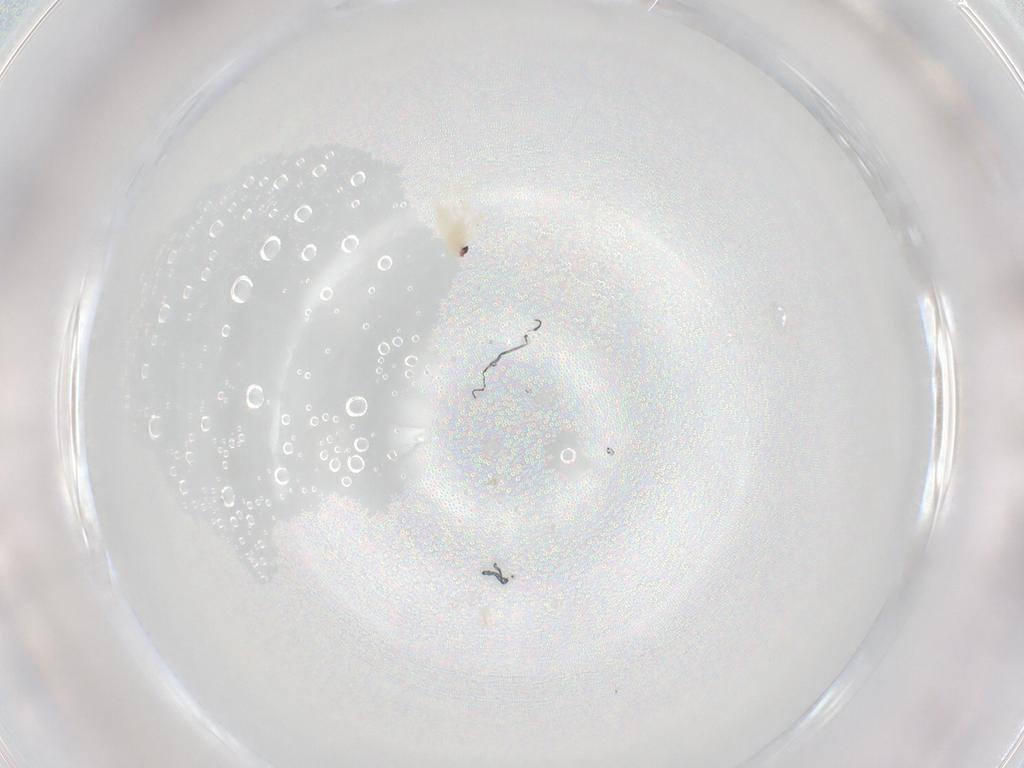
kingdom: Animalia
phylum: Arthropoda
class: Insecta
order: Hemiptera
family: Aleyrodidae
